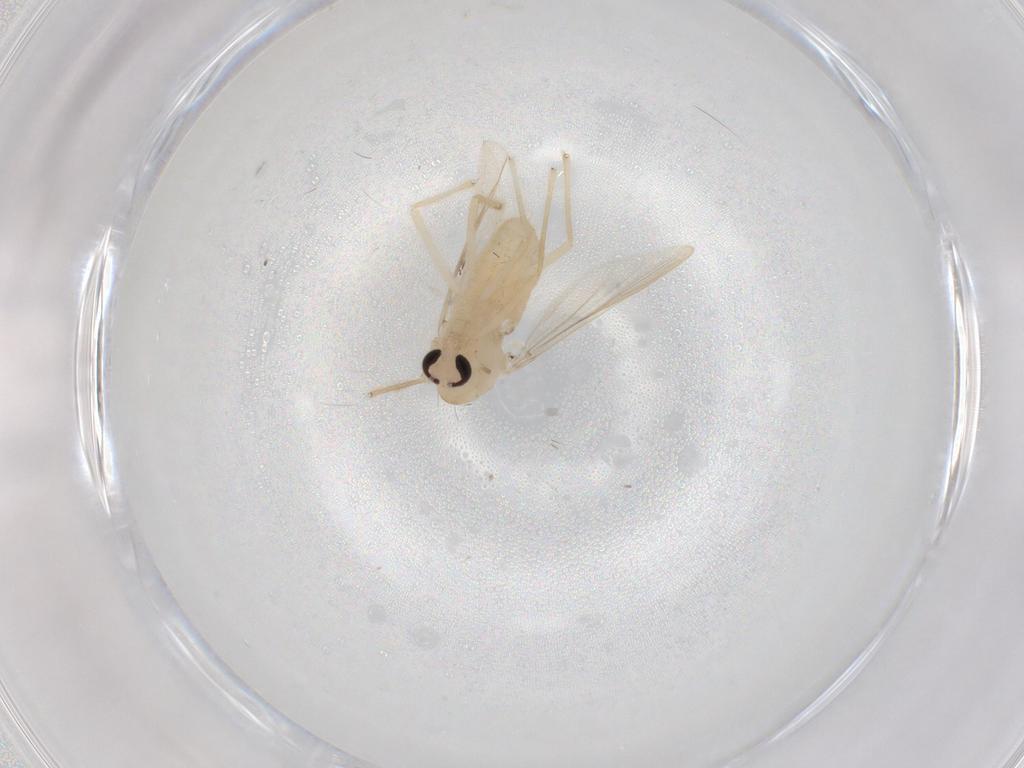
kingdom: Animalia
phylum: Arthropoda
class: Insecta
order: Diptera
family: Chironomidae
